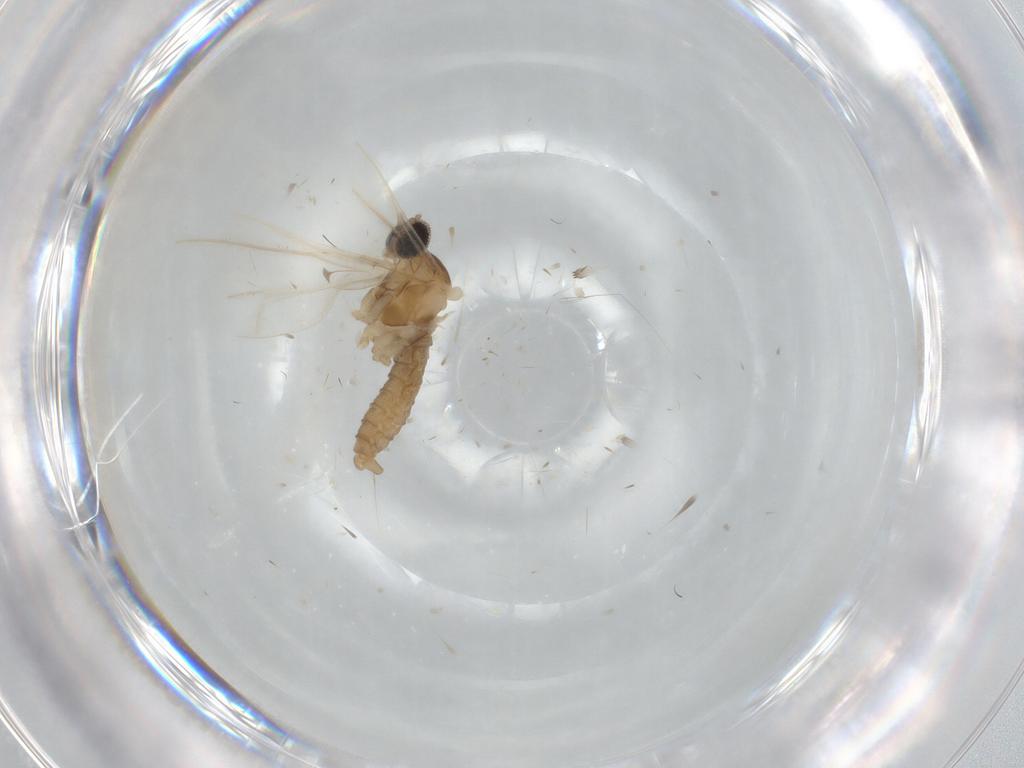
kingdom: Animalia
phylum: Arthropoda
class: Insecta
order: Diptera
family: Cecidomyiidae
